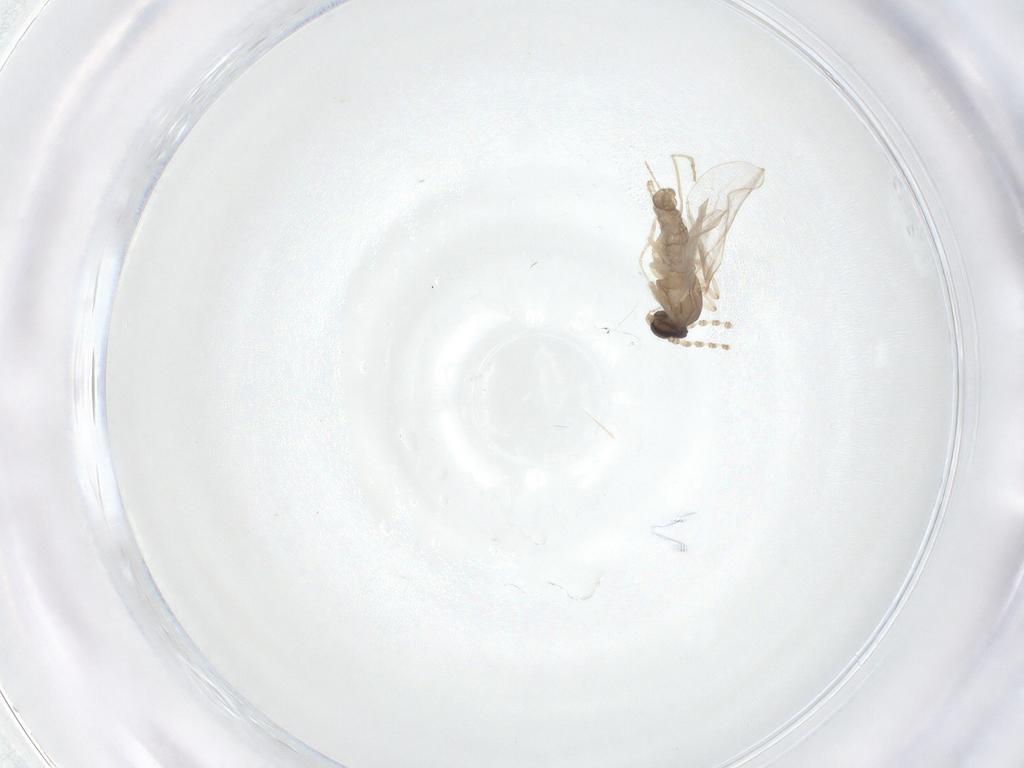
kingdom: Animalia
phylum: Arthropoda
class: Insecta
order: Diptera
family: Cecidomyiidae
